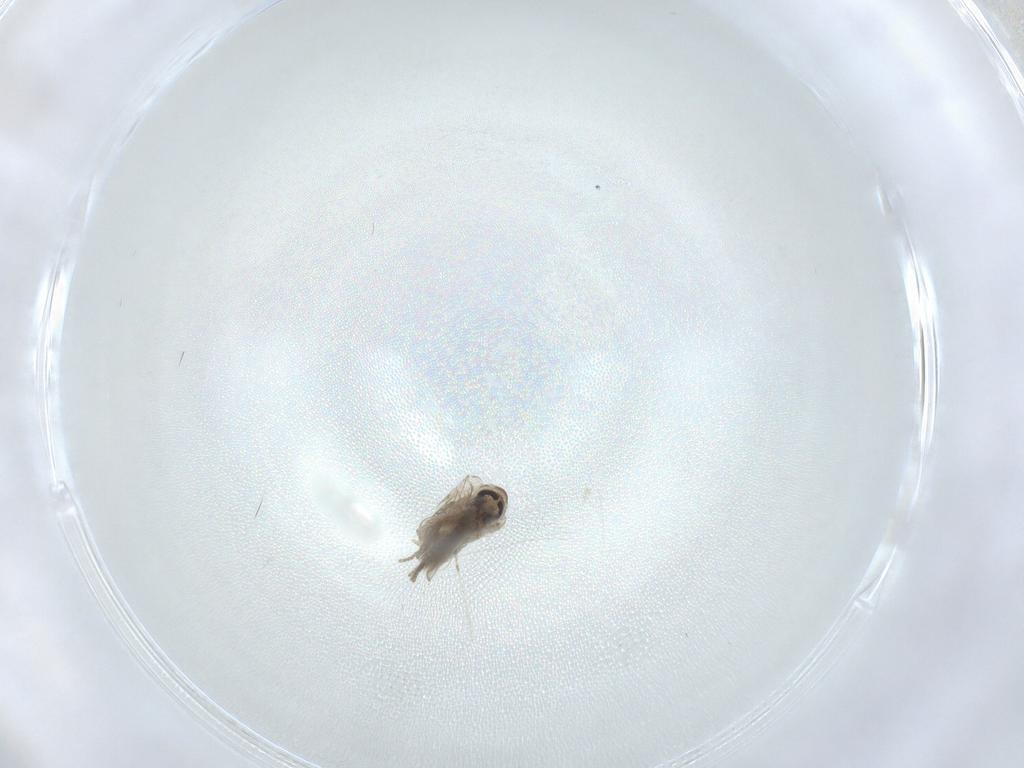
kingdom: Animalia
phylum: Arthropoda
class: Insecta
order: Diptera
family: Psychodidae
